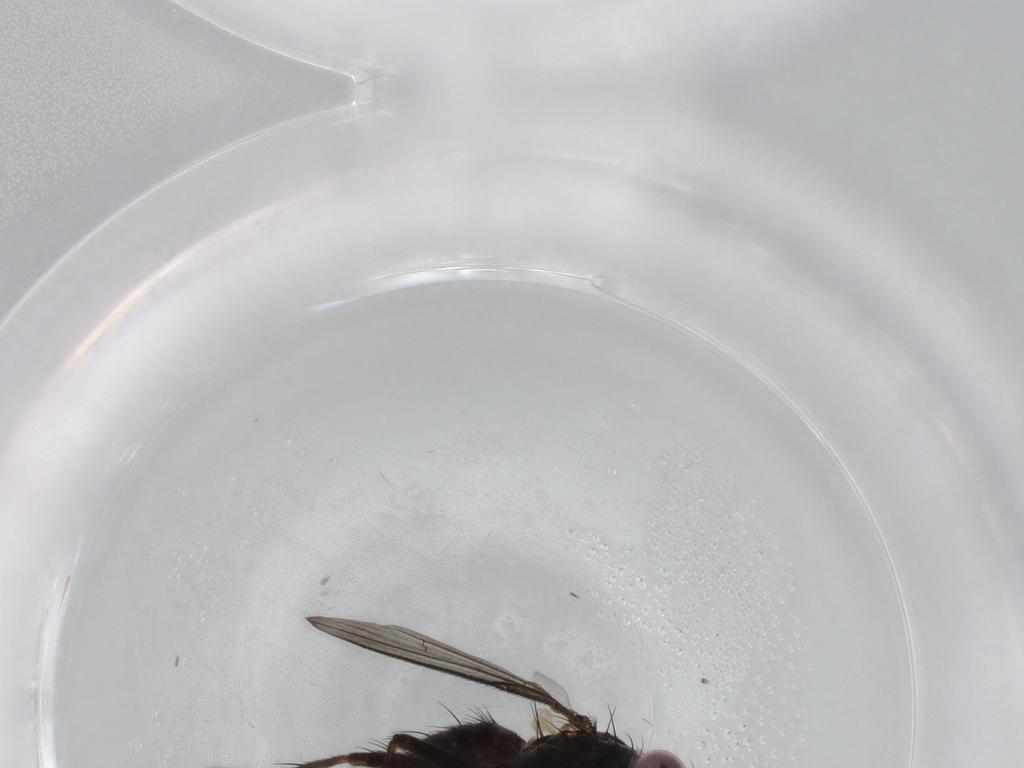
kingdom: Animalia
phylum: Arthropoda
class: Insecta
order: Diptera
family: Muscidae
